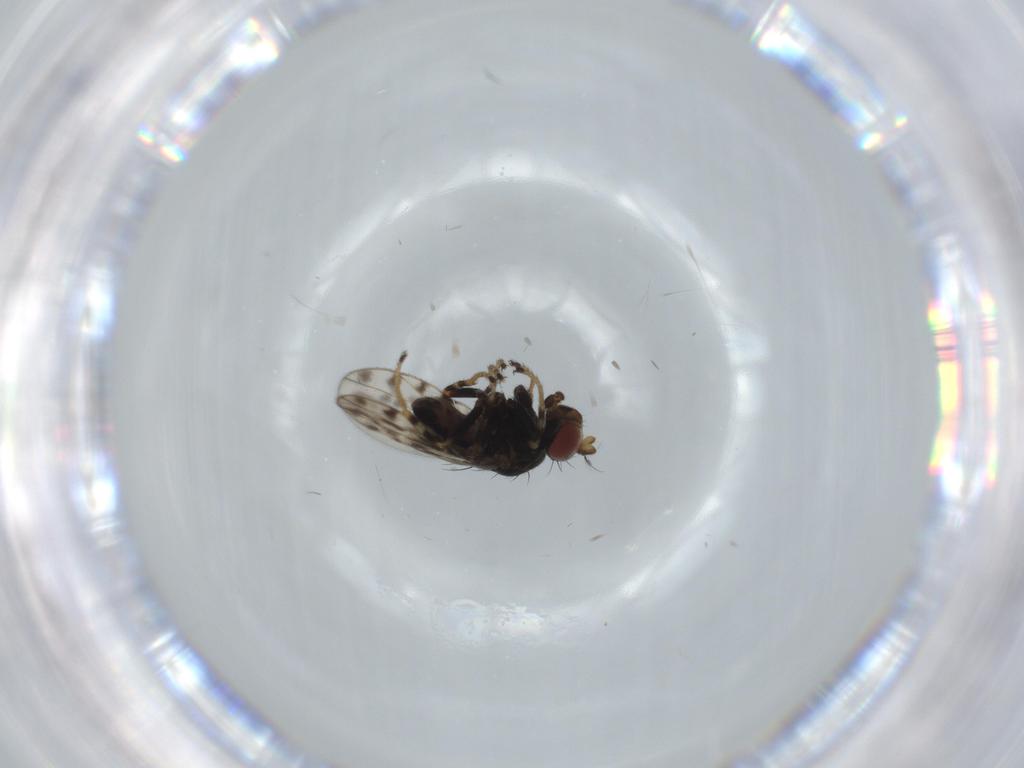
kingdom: Animalia
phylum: Arthropoda
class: Insecta
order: Diptera
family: Ephydridae
